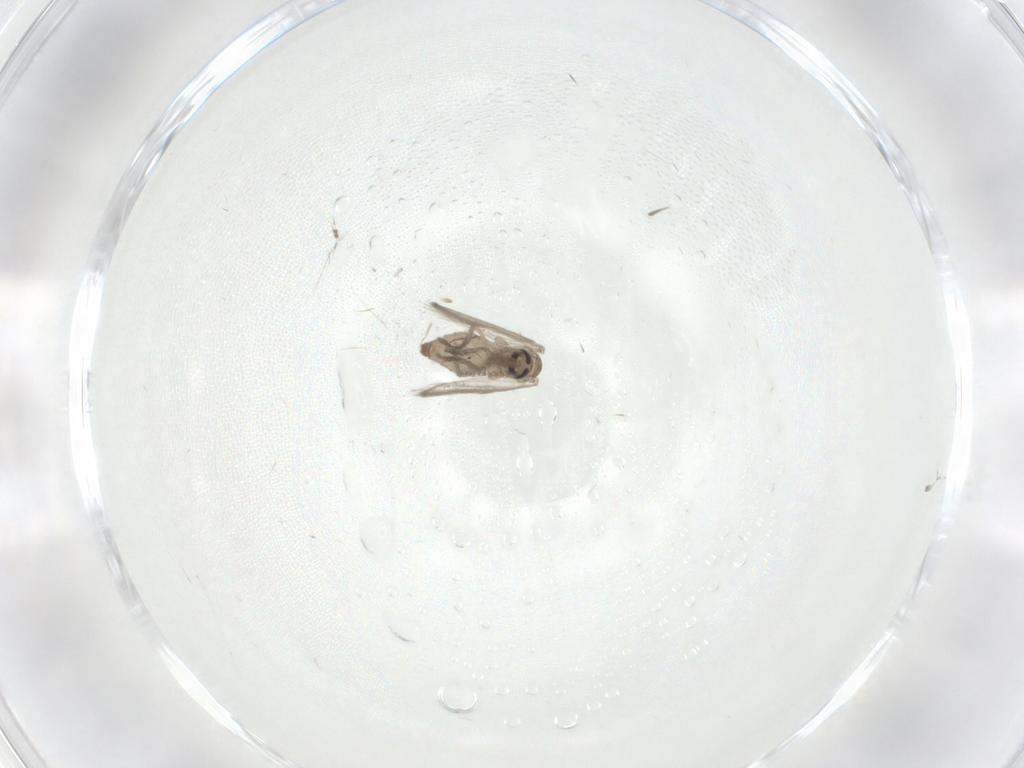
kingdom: Animalia
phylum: Arthropoda
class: Insecta
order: Diptera
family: Psychodidae
